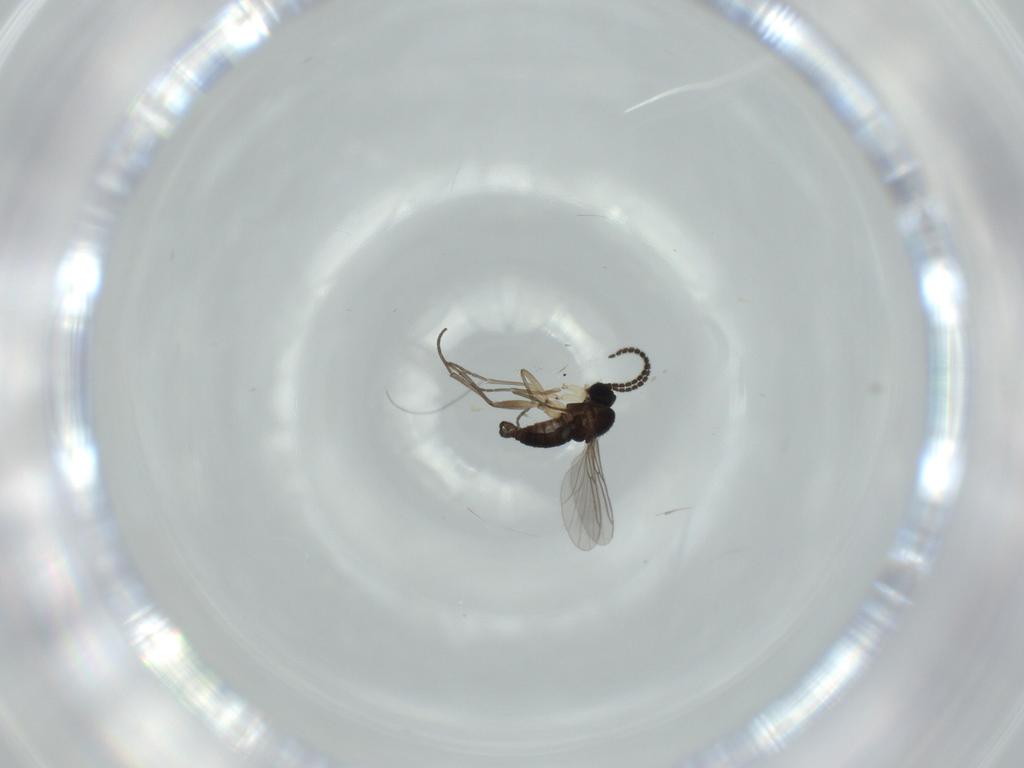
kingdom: Animalia
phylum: Arthropoda
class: Insecta
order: Diptera
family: Sciaridae
